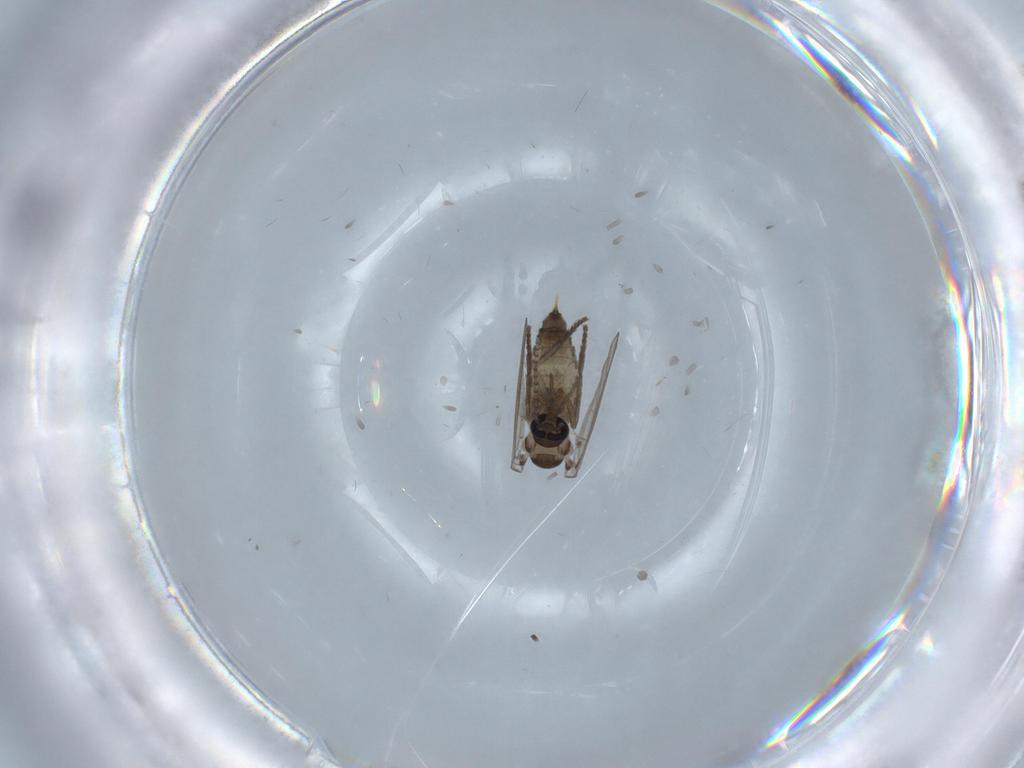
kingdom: Animalia
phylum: Arthropoda
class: Insecta
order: Diptera
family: Psychodidae
